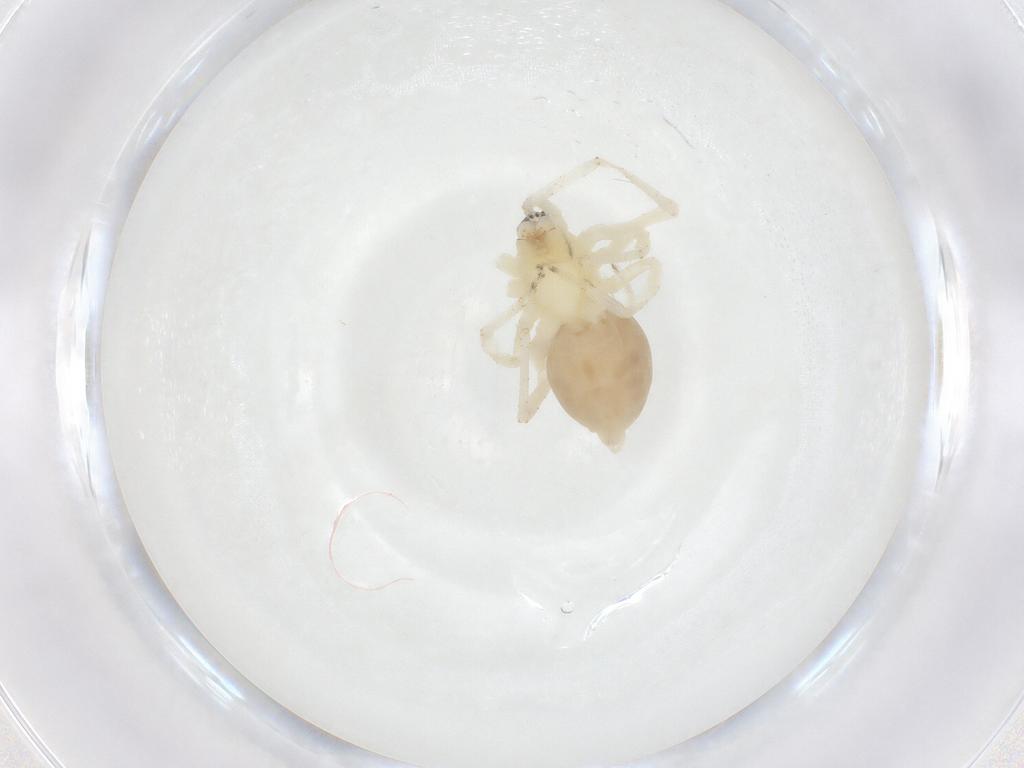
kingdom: Animalia
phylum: Arthropoda
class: Arachnida
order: Araneae
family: Anyphaenidae
